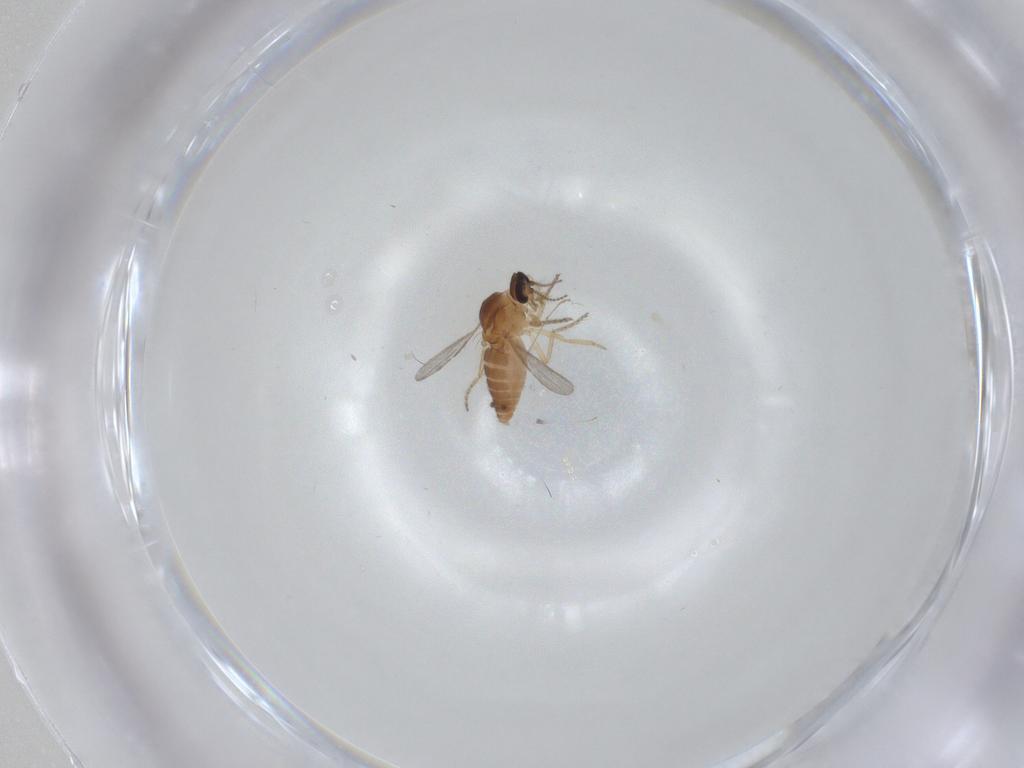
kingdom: Animalia
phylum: Arthropoda
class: Insecta
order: Diptera
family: Ceratopogonidae
